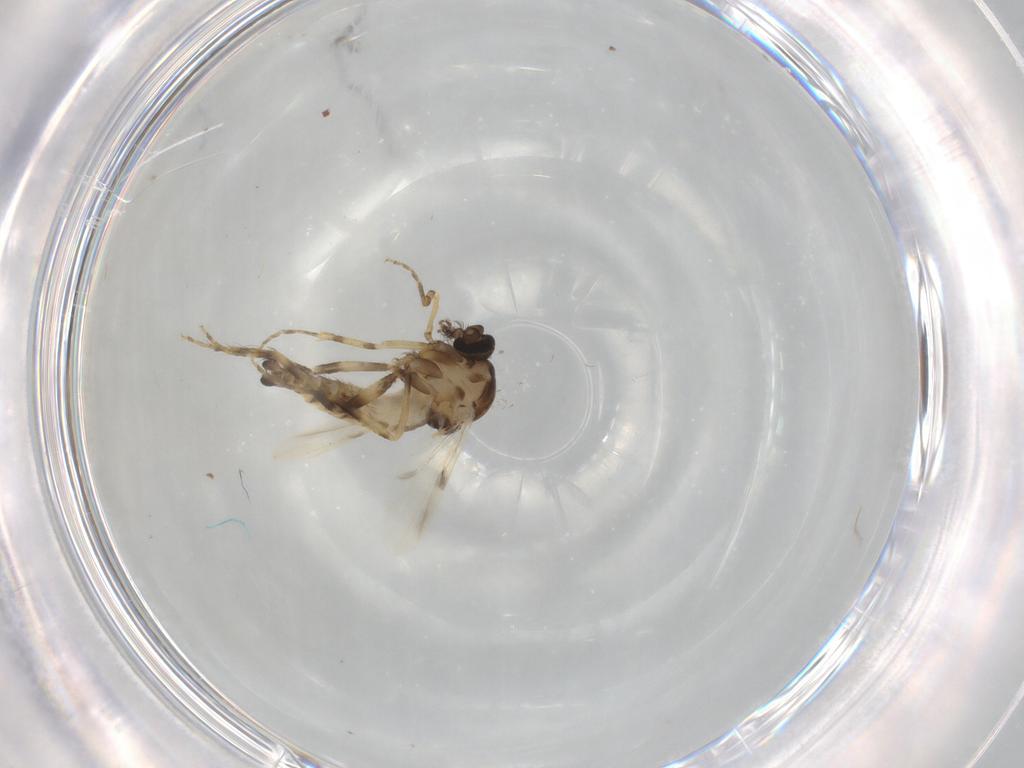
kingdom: Animalia
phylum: Arthropoda
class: Insecta
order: Diptera
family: Ceratopogonidae
